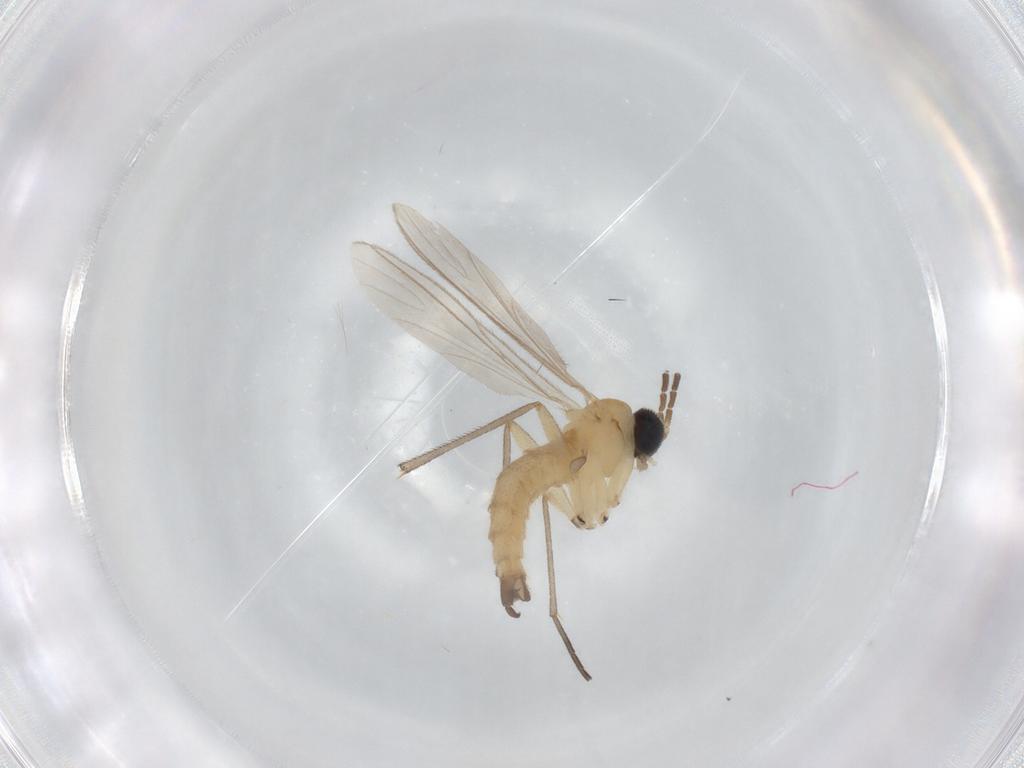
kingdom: Animalia
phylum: Arthropoda
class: Insecta
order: Diptera
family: Sciaridae
